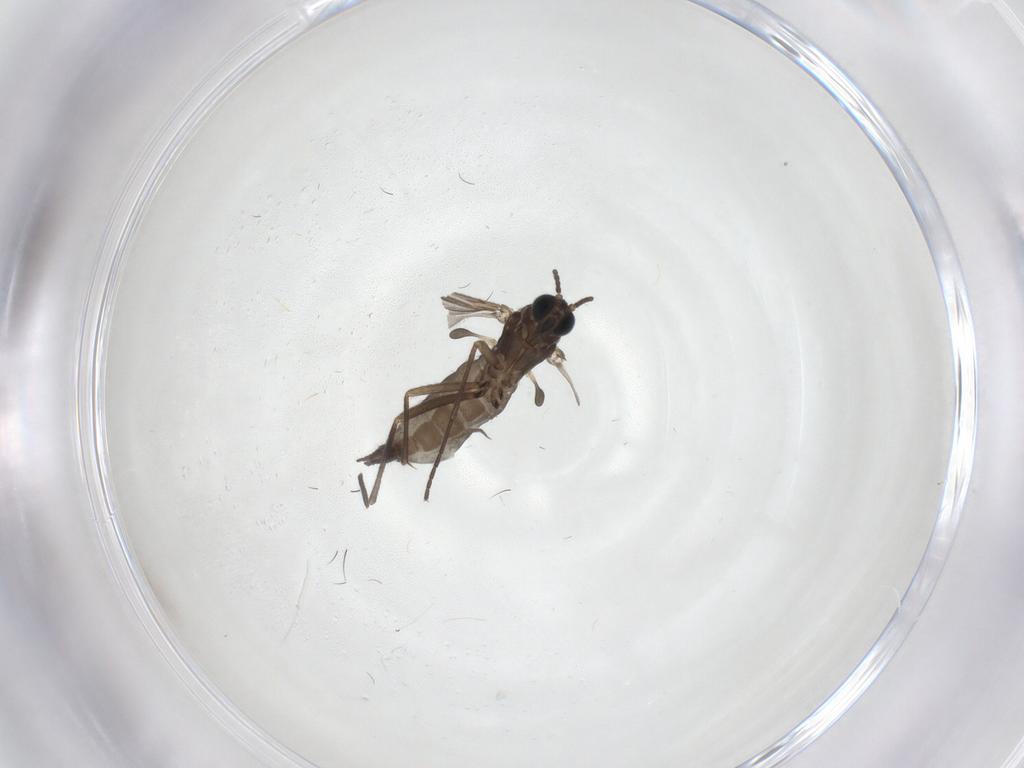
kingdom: Animalia
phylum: Arthropoda
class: Insecta
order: Diptera
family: Sciaridae
